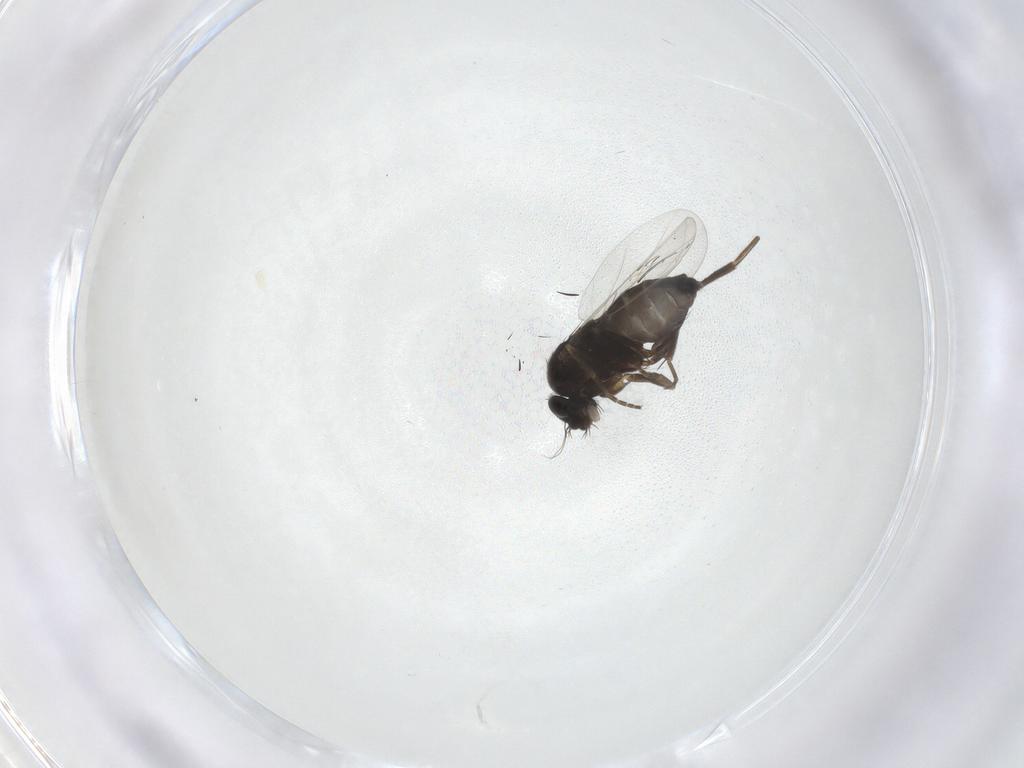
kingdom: Animalia
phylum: Arthropoda
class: Insecta
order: Diptera
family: Phoridae
